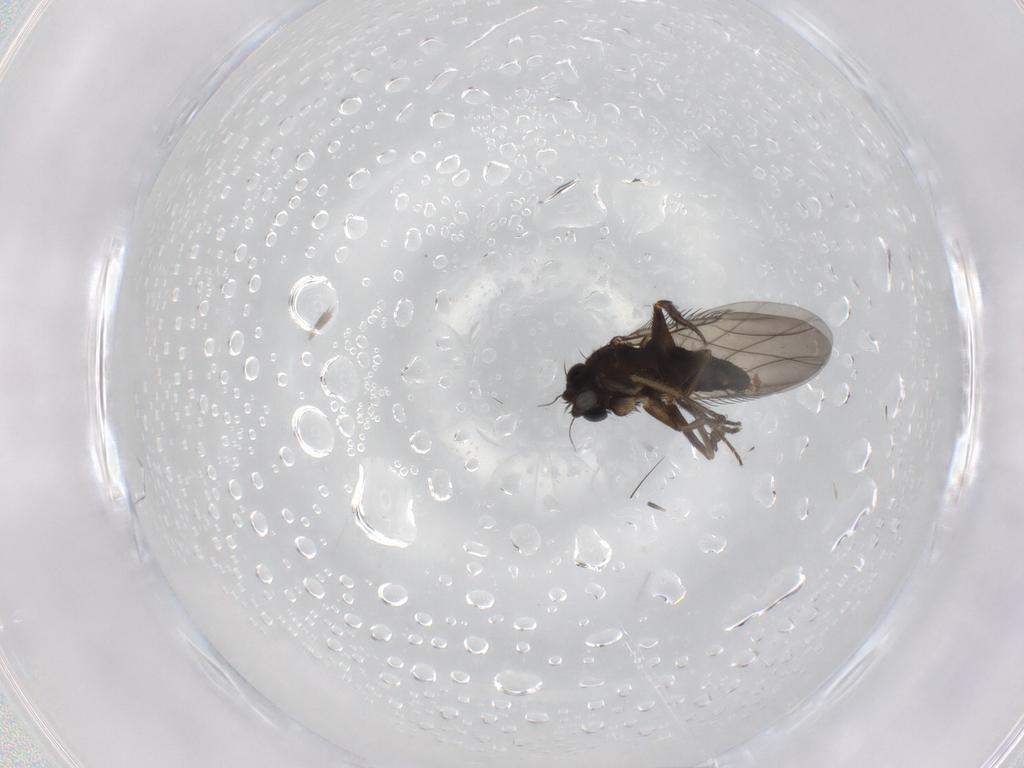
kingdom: Animalia
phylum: Arthropoda
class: Insecta
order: Diptera
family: Phoridae
